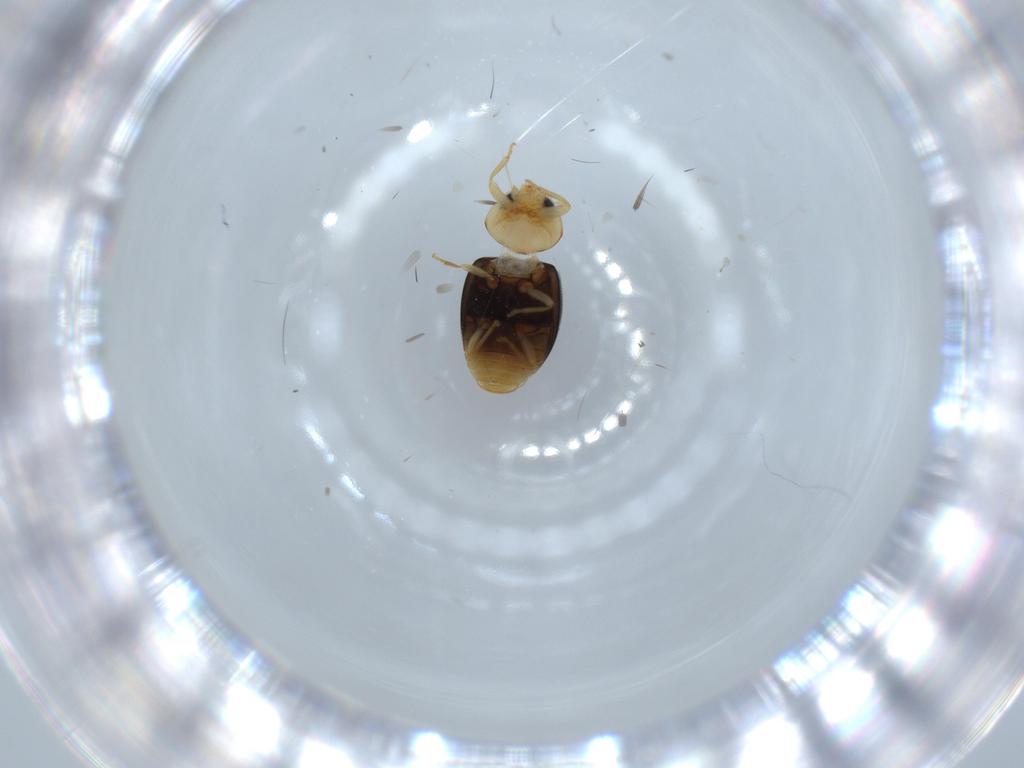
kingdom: Animalia
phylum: Arthropoda
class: Insecta
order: Coleoptera
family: Coccinellidae
